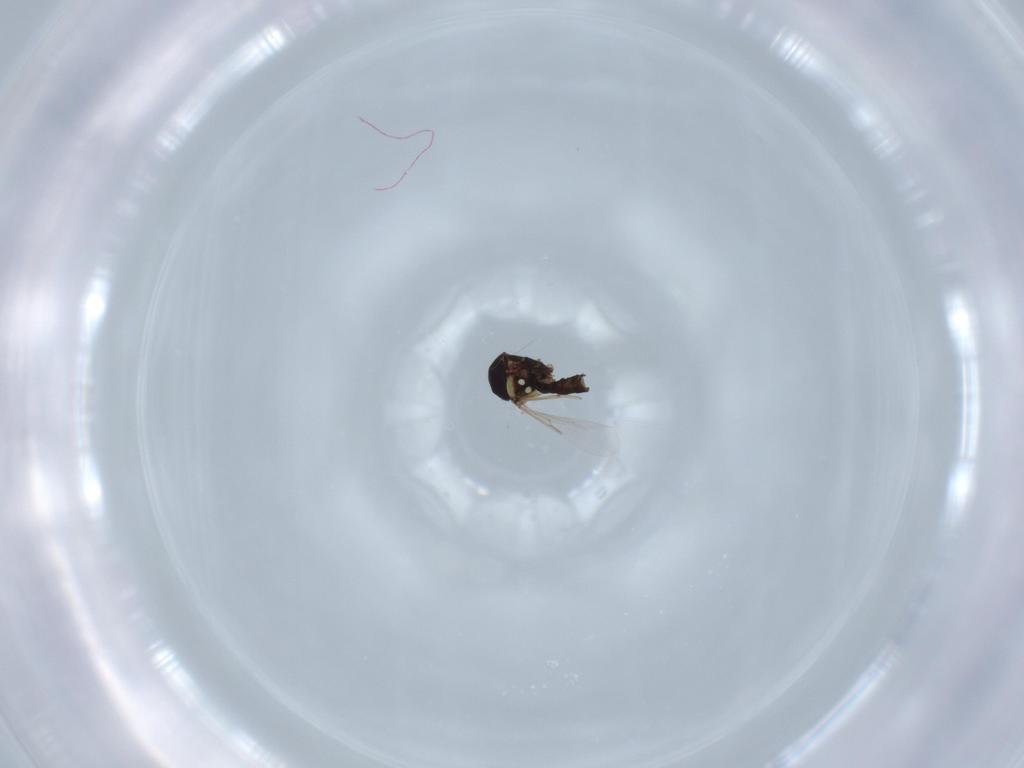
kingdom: Animalia
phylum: Arthropoda
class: Insecta
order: Diptera
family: Ceratopogonidae
